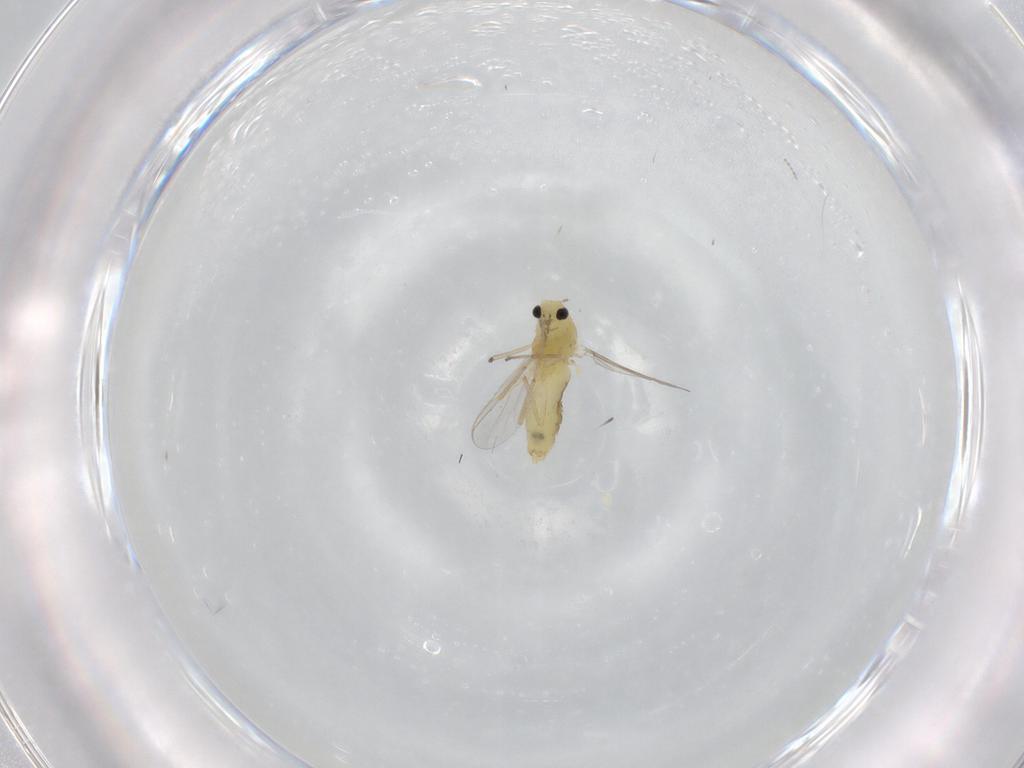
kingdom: Animalia
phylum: Arthropoda
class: Insecta
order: Diptera
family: Chironomidae
